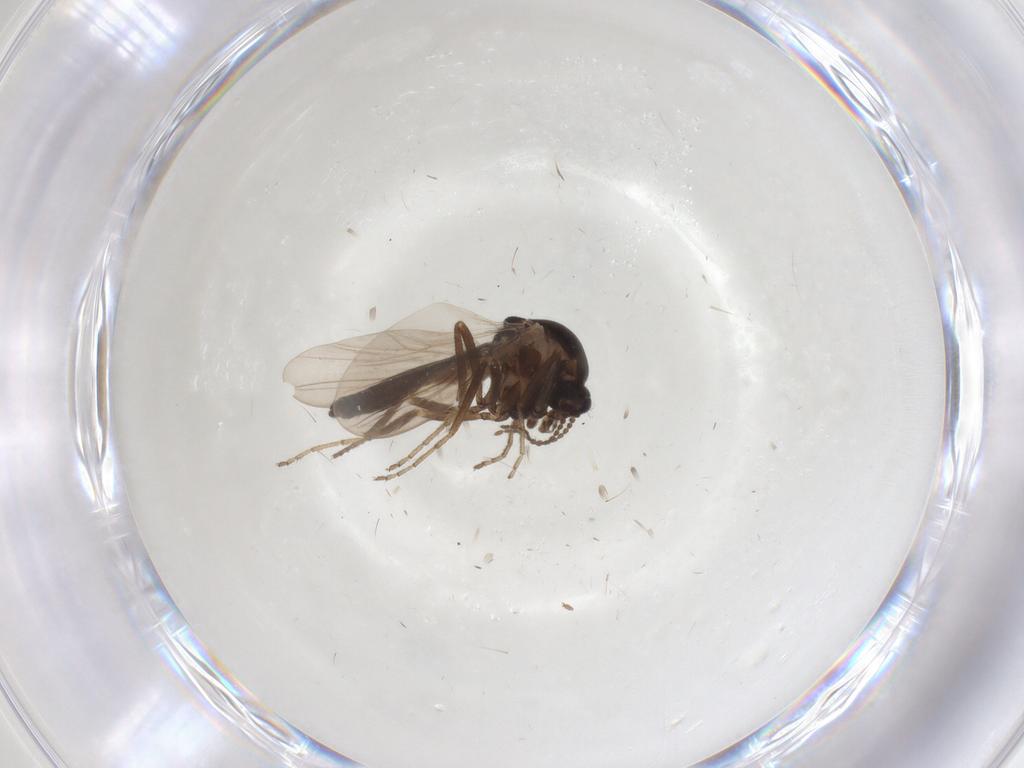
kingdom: Animalia
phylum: Arthropoda
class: Insecta
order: Diptera
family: Ceratopogonidae
